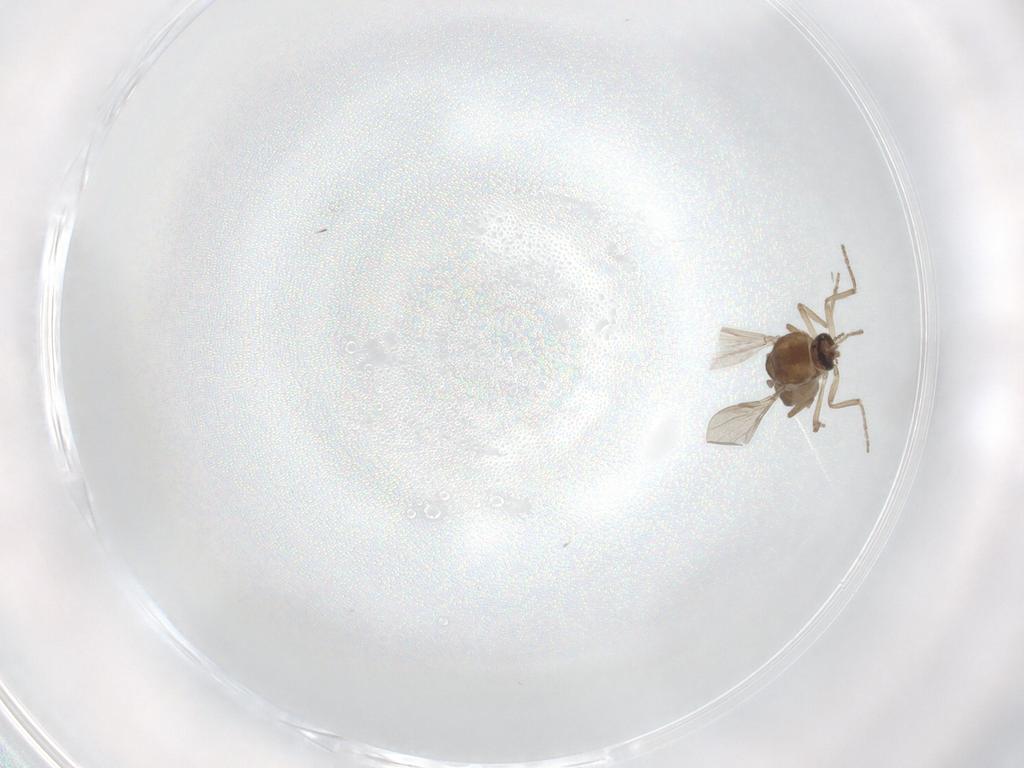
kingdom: Animalia
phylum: Arthropoda
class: Insecta
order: Diptera
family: Ceratopogonidae
